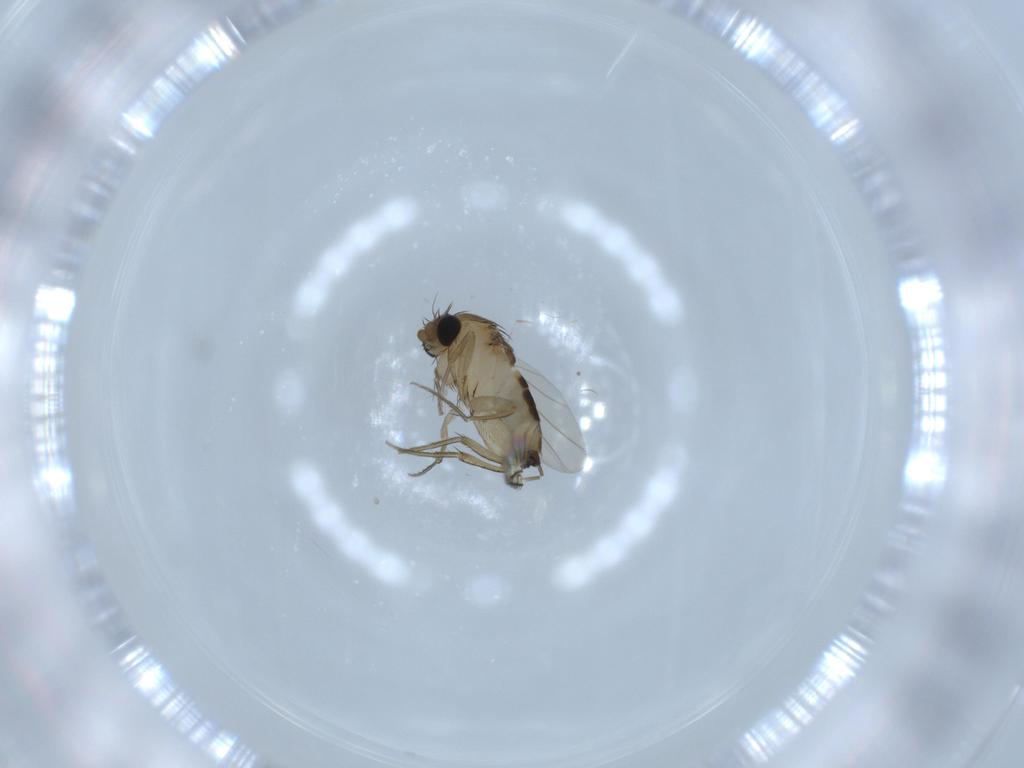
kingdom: Animalia
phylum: Arthropoda
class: Insecta
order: Diptera
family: Phoridae
